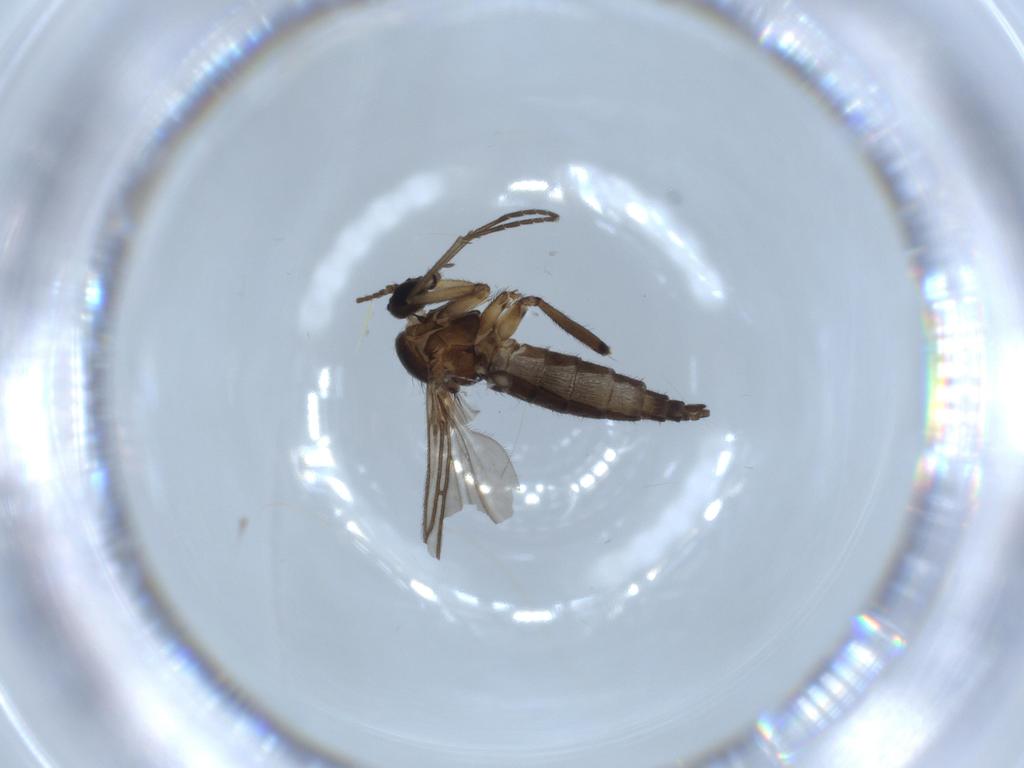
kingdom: Animalia
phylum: Arthropoda
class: Insecta
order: Diptera
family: Sciaridae
